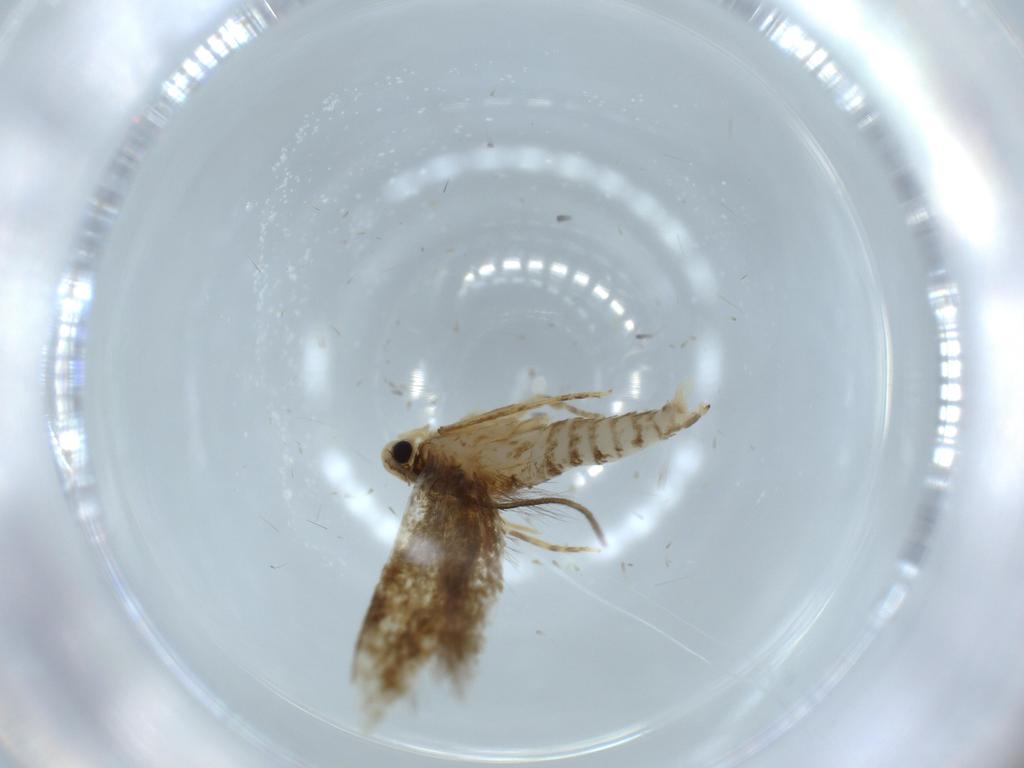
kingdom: Animalia
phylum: Arthropoda
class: Insecta
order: Lepidoptera
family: Tineidae
